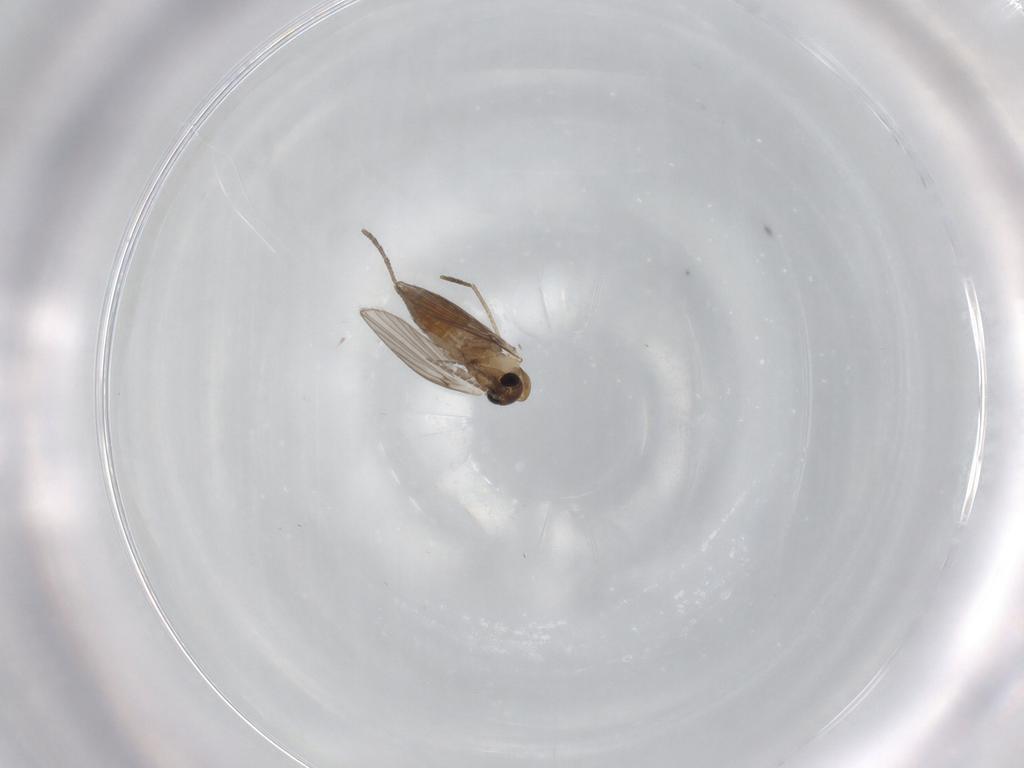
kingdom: Animalia
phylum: Arthropoda
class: Insecta
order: Diptera
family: Psychodidae
